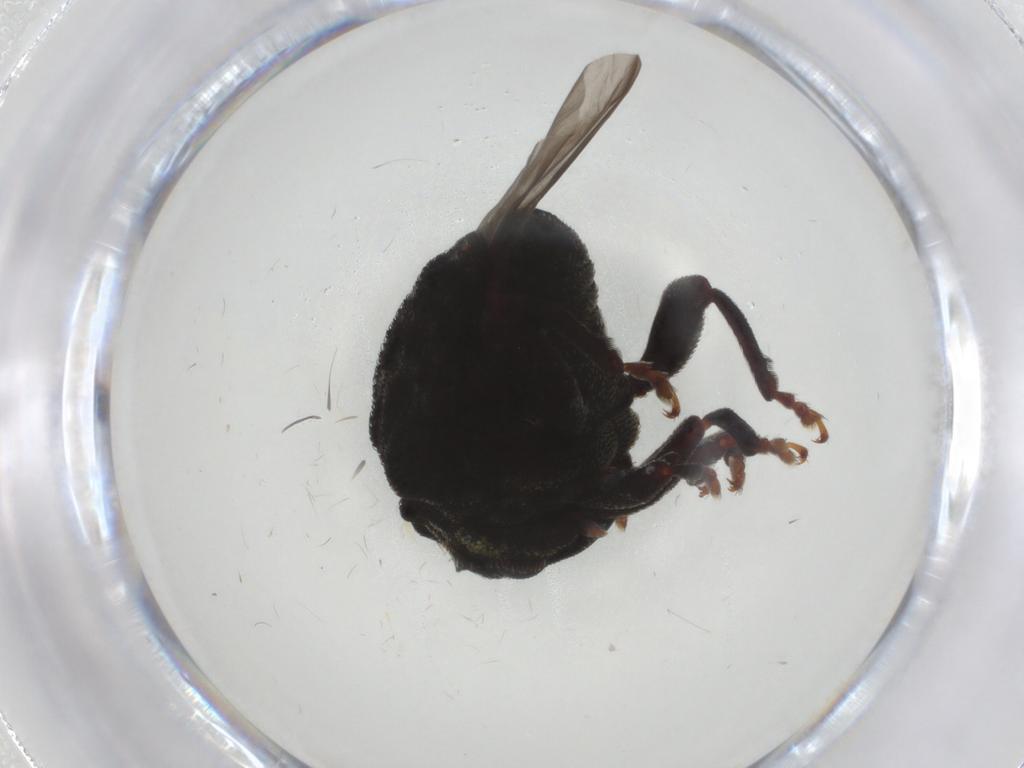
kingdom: Animalia
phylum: Arthropoda
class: Insecta
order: Coleoptera
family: Curculionidae
